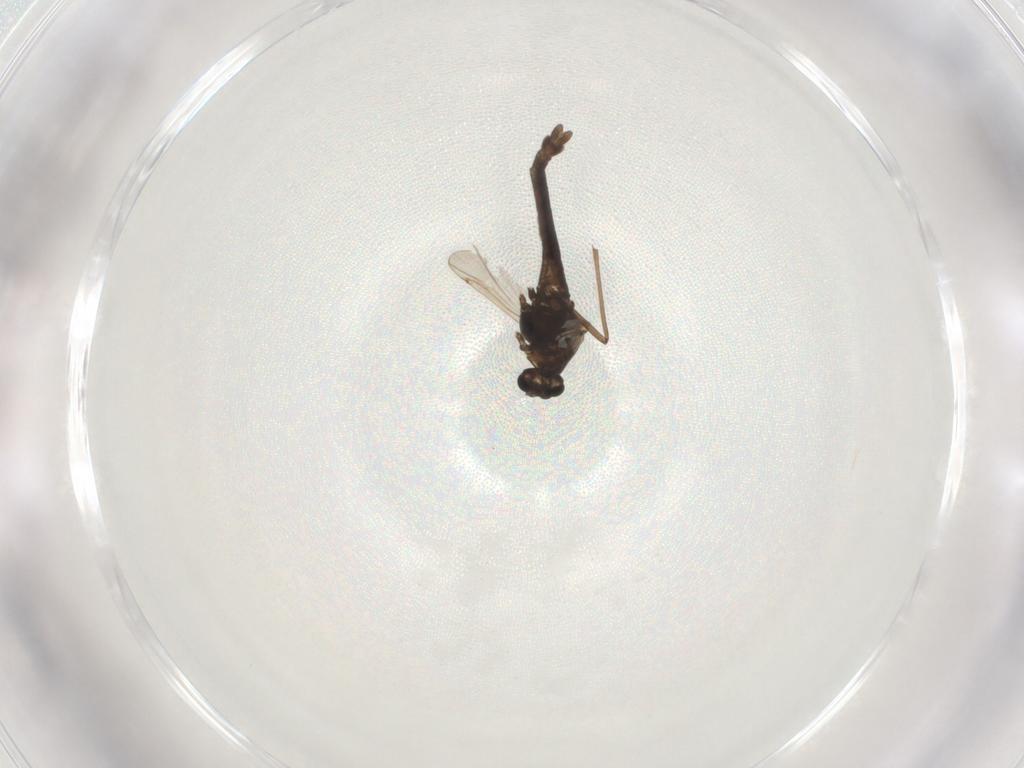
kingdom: Animalia
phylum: Arthropoda
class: Insecta
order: Diptera
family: Chironomidae
